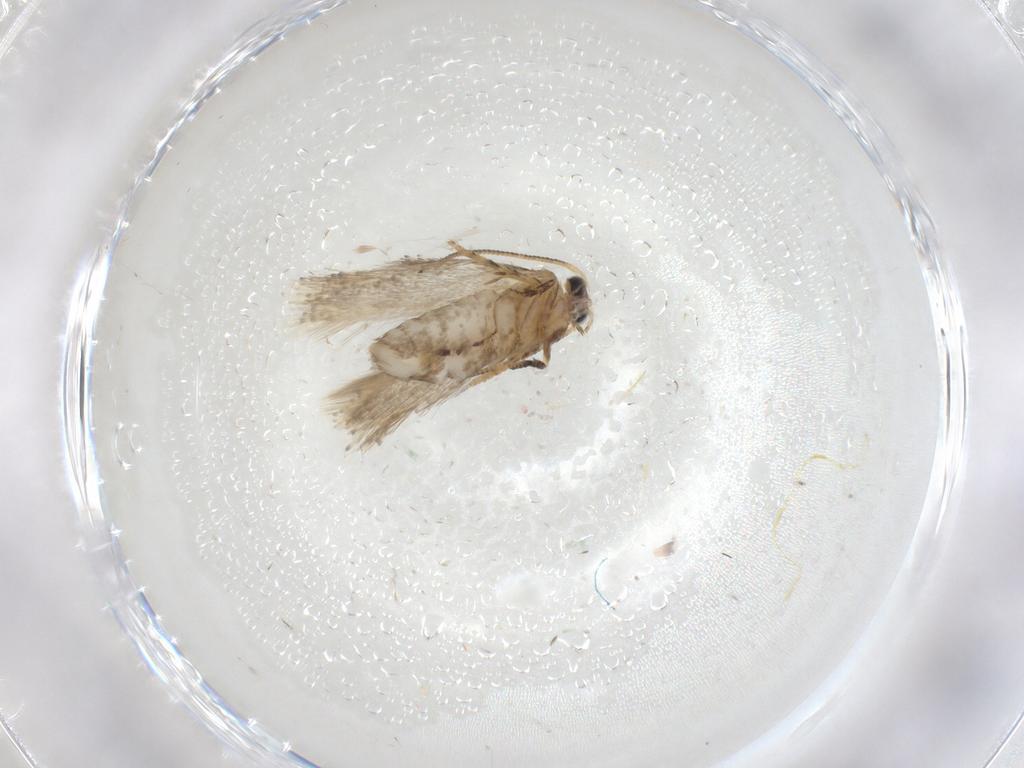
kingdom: Animalia
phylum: Arthropoda
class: Insecta
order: Lepidoptera
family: Nepticulidae
